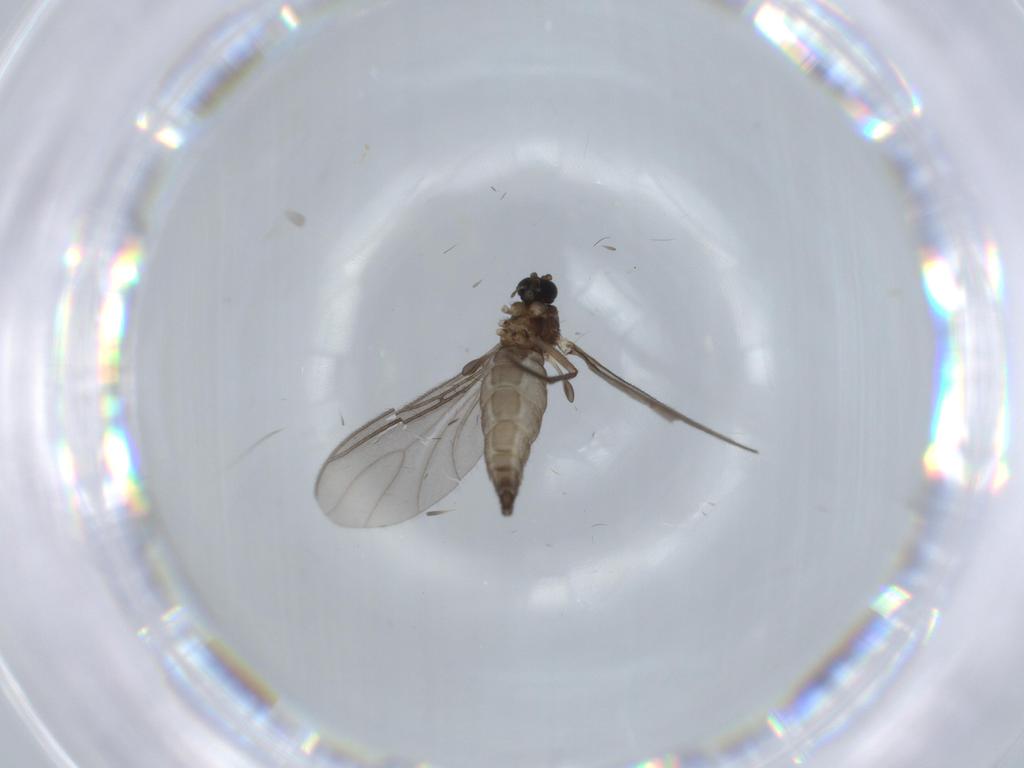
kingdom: Animalia
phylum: Arthropoda
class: Insecta
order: Diptera
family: Sciaridae
